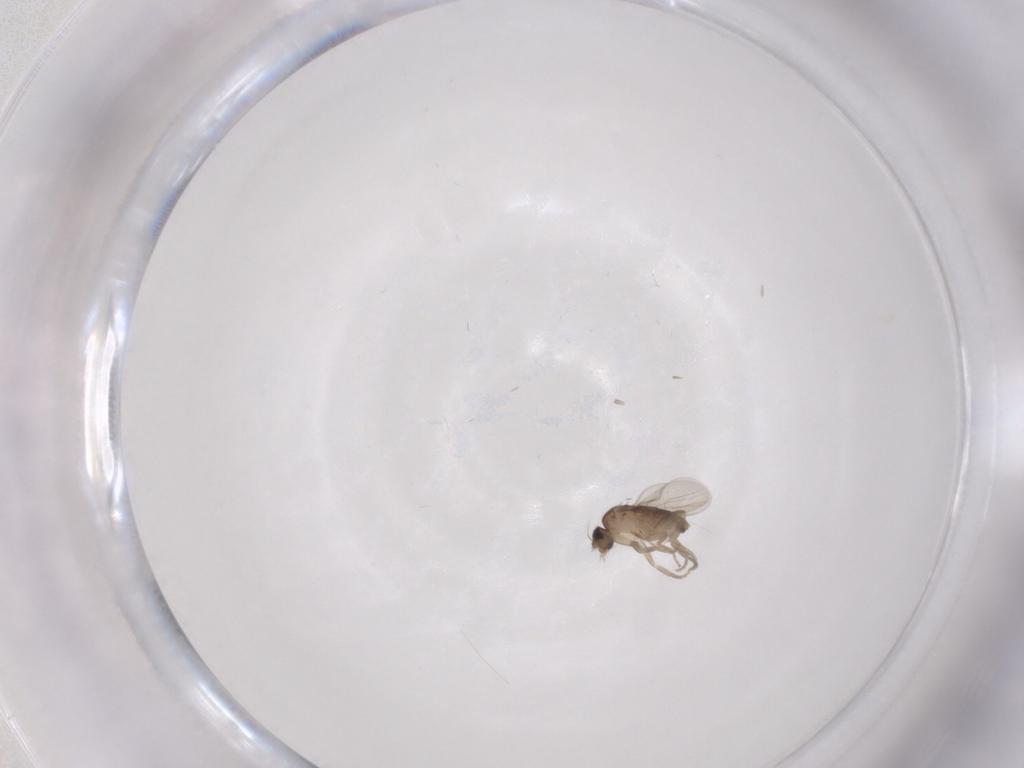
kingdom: Animalia
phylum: Arthropoda
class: Insecta
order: Diptera
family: Phoridae
